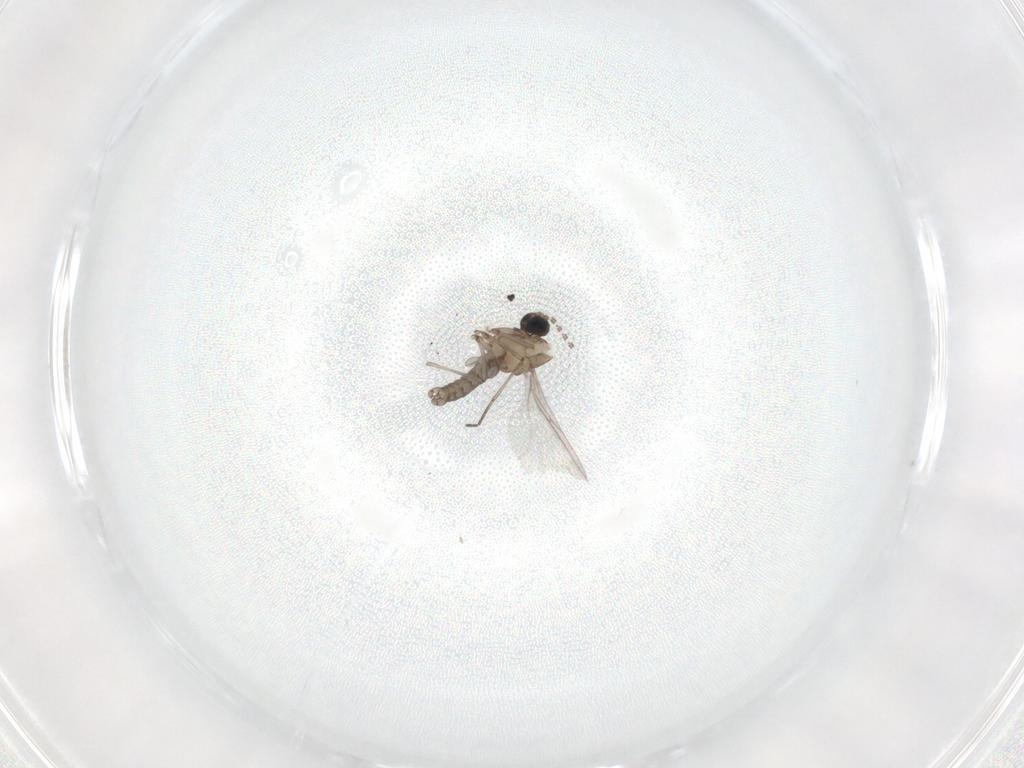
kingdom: Animalia
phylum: Arthropoda
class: Insecta
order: Diptera
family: Sciaridae
